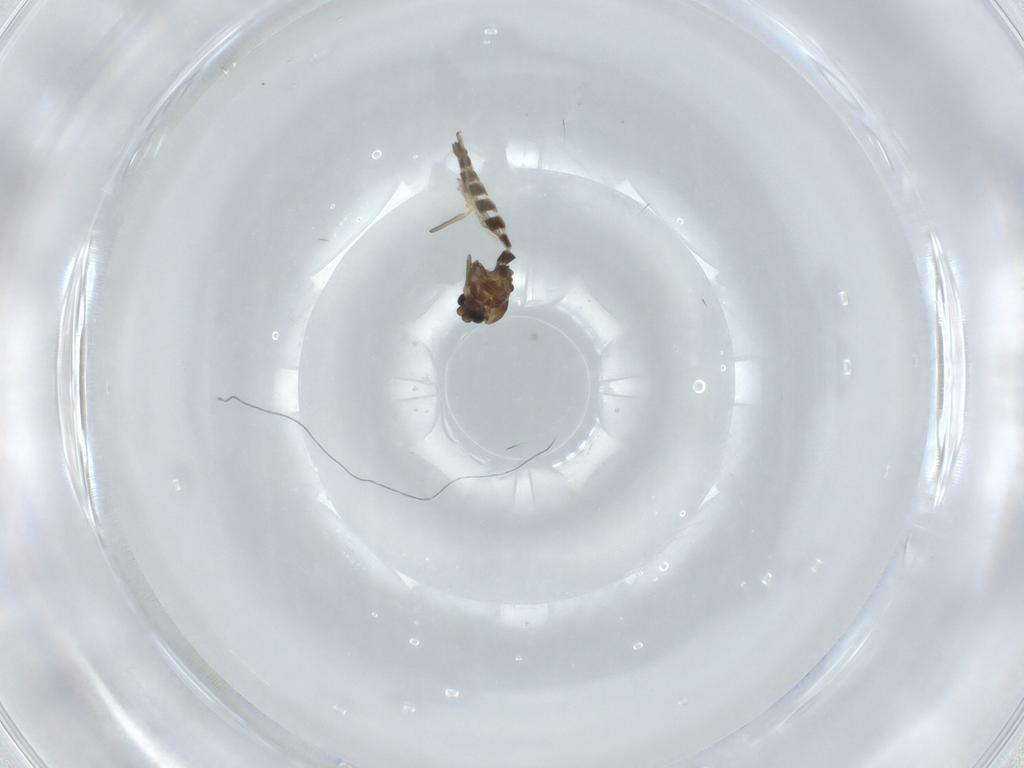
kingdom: Animalia
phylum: Arthropoda
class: Insecta
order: Diptera
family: Chironomidae
